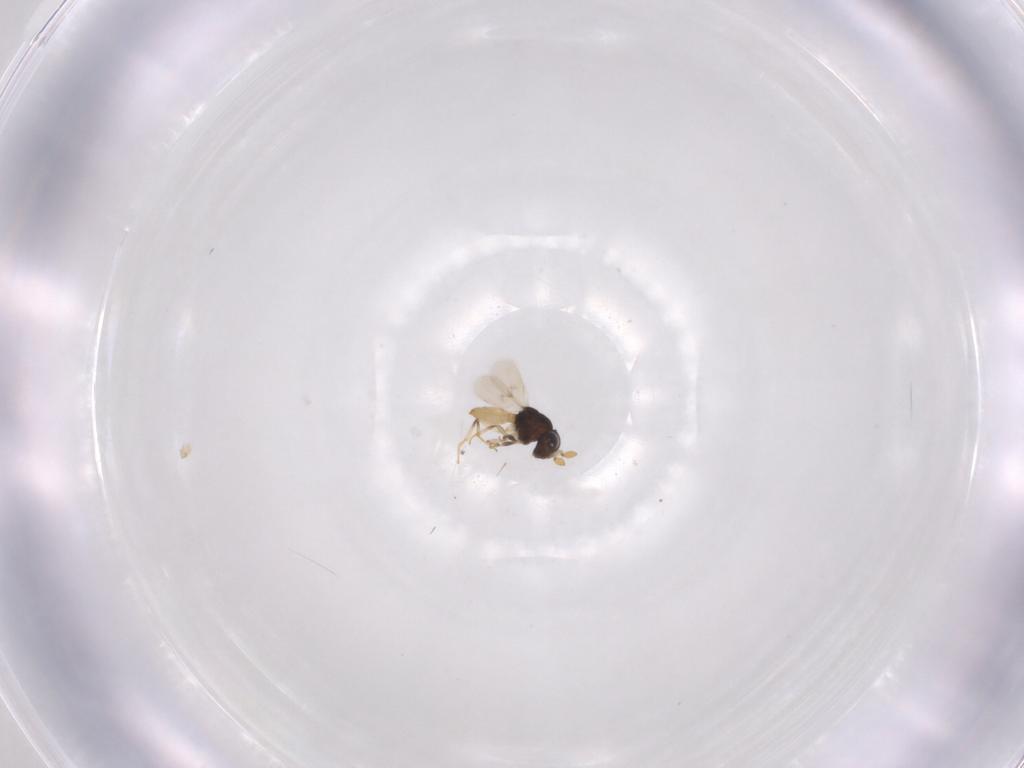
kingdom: Animalia
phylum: Arthropoda
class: Insecta
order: Hymenoptera
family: Scelionidae
